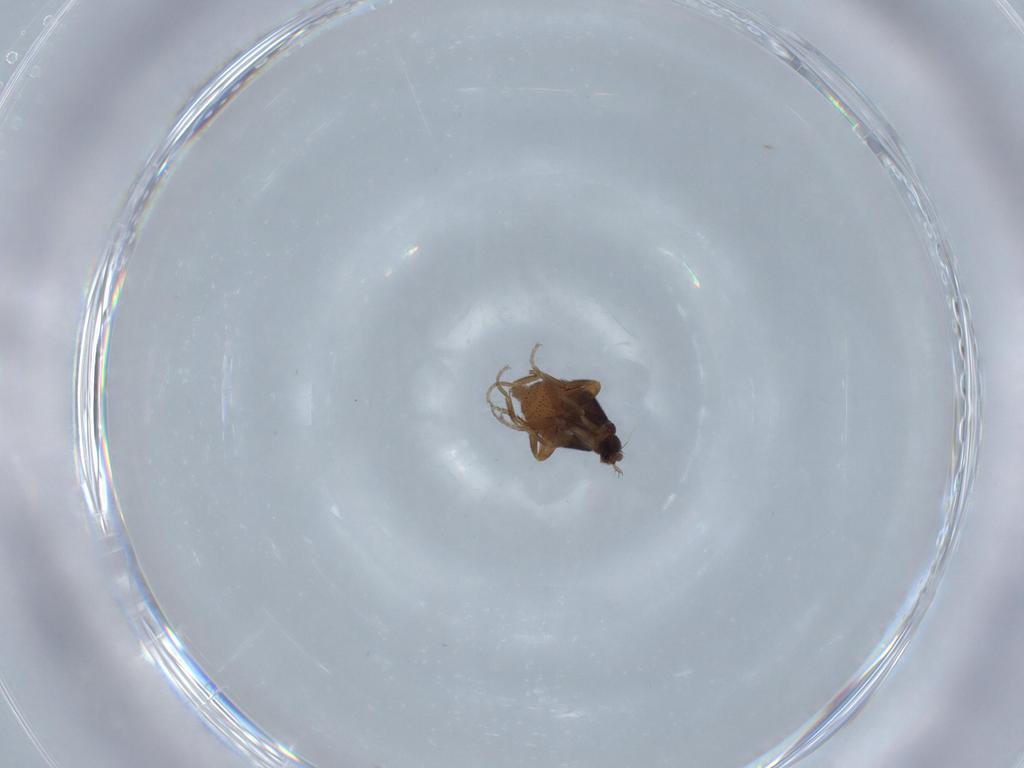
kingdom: Animalia
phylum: Arthropoda
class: Insecta
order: Diptera
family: Phoridae
